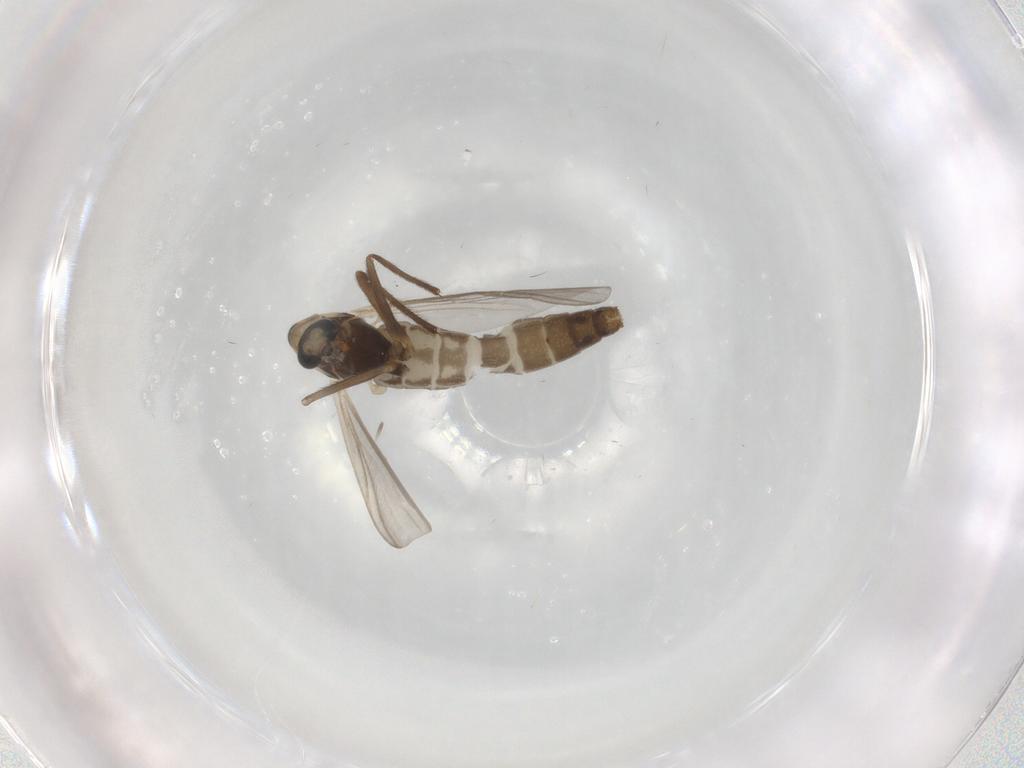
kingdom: Animalia
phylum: Arthropoda
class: Insecta
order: Diptera
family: Chironomidae
